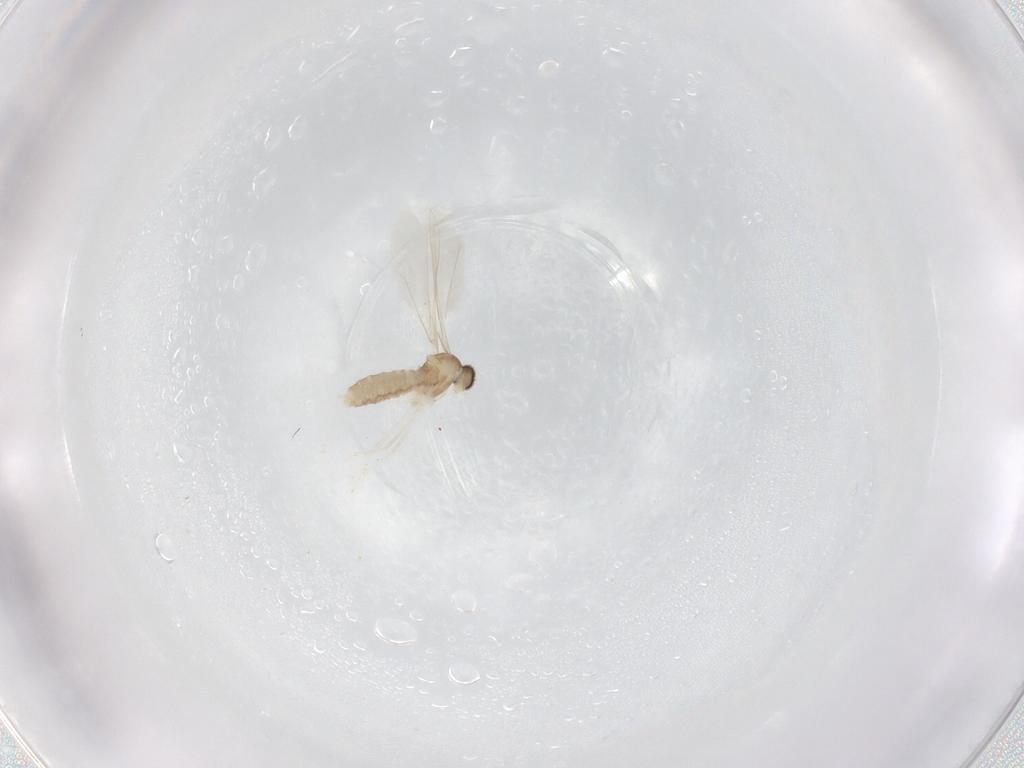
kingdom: Animalia
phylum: Arthropoda
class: Insecta
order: Diptera
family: Cecidomyiidae
